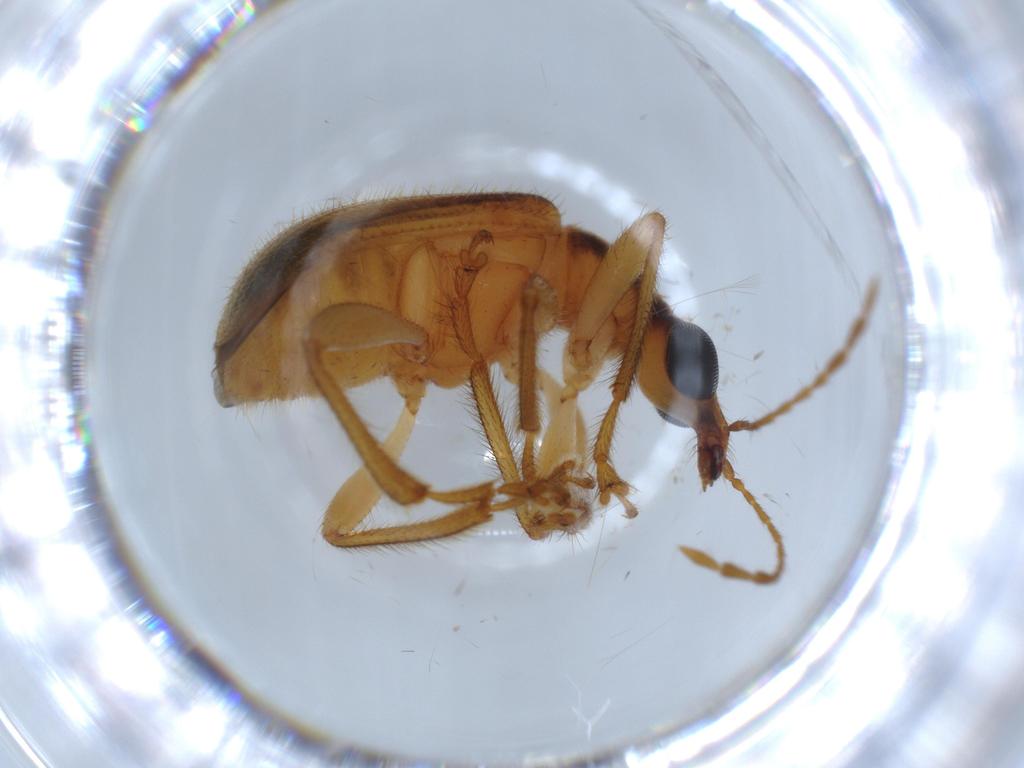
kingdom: Animalia
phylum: Arthropoda
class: Insecta
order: Coleoptera
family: Attelabidae
